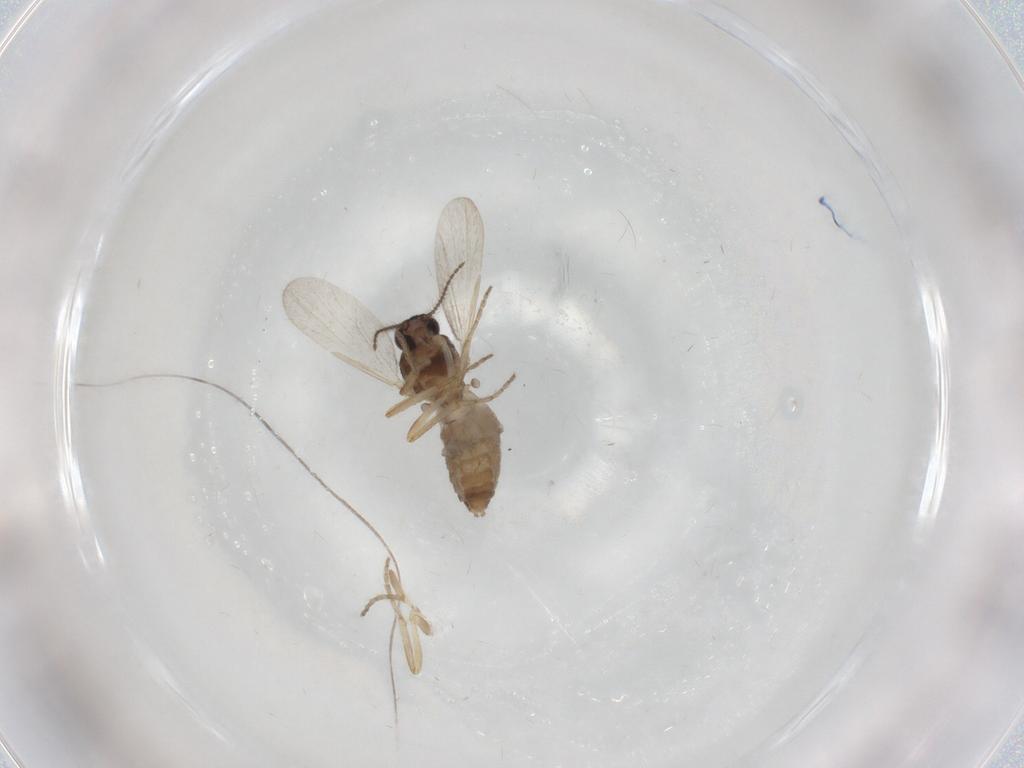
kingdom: Animalia
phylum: Arthropoda
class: Insecta
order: Diptera
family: Ceratopogonidae
